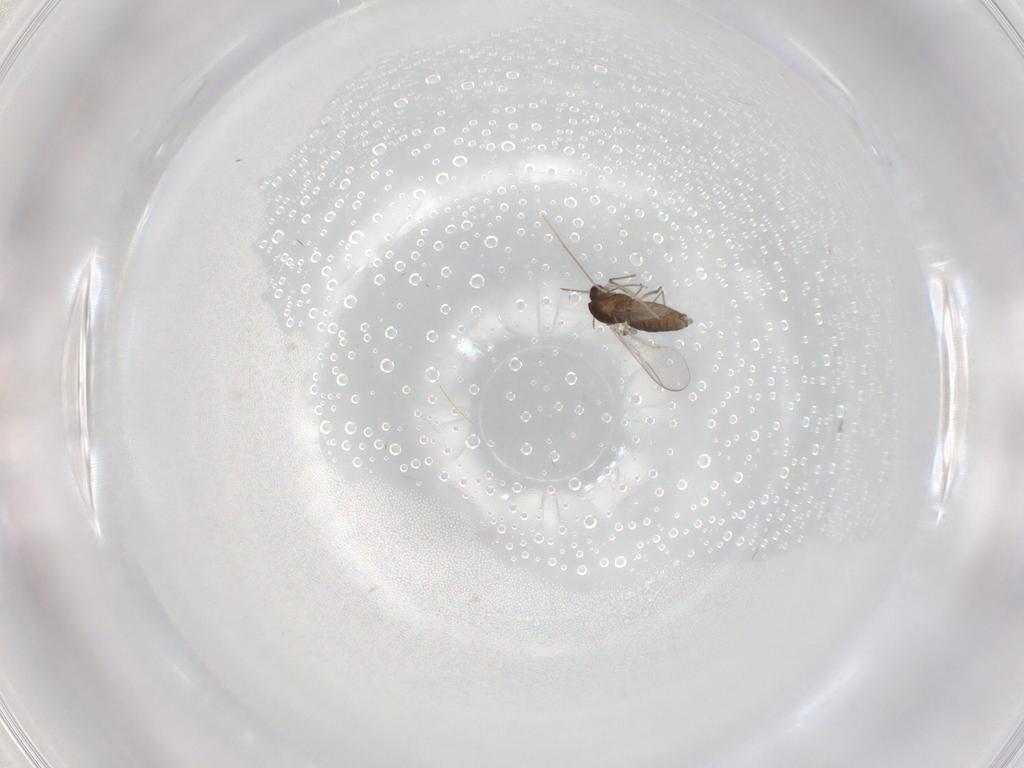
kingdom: Animalia
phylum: Arthropoda
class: Insecta
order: Diptera
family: Chironomidae
